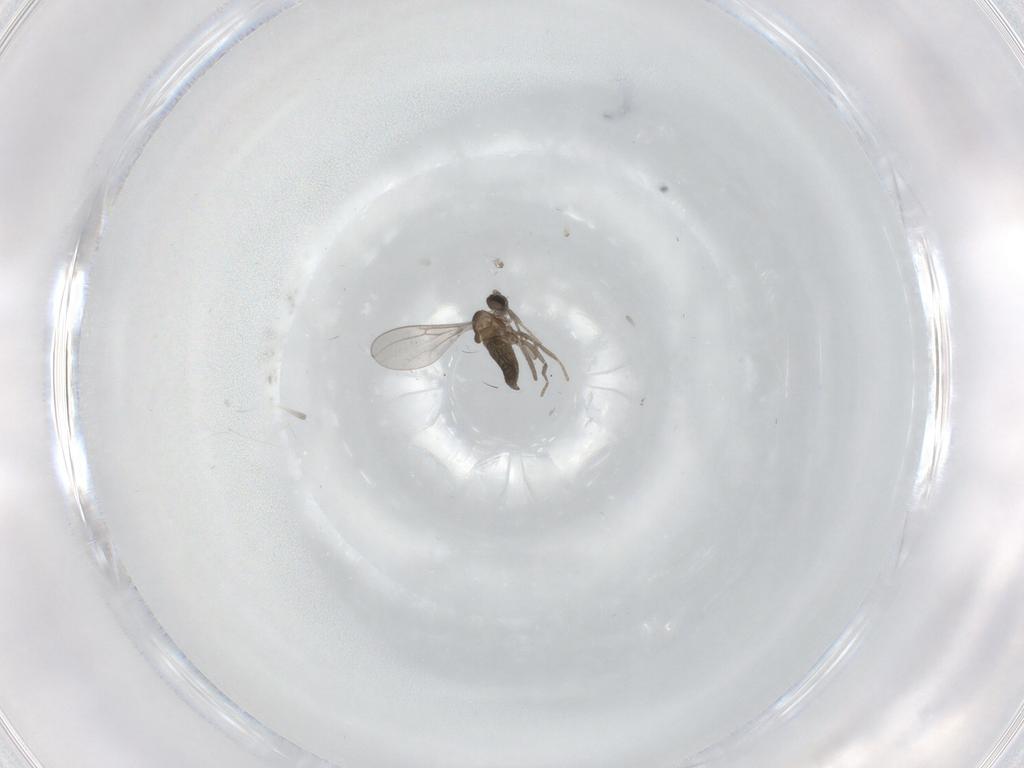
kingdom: Animalia
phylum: Arthropoda
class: Insecta
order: Diptera
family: Cecidomyiidae
